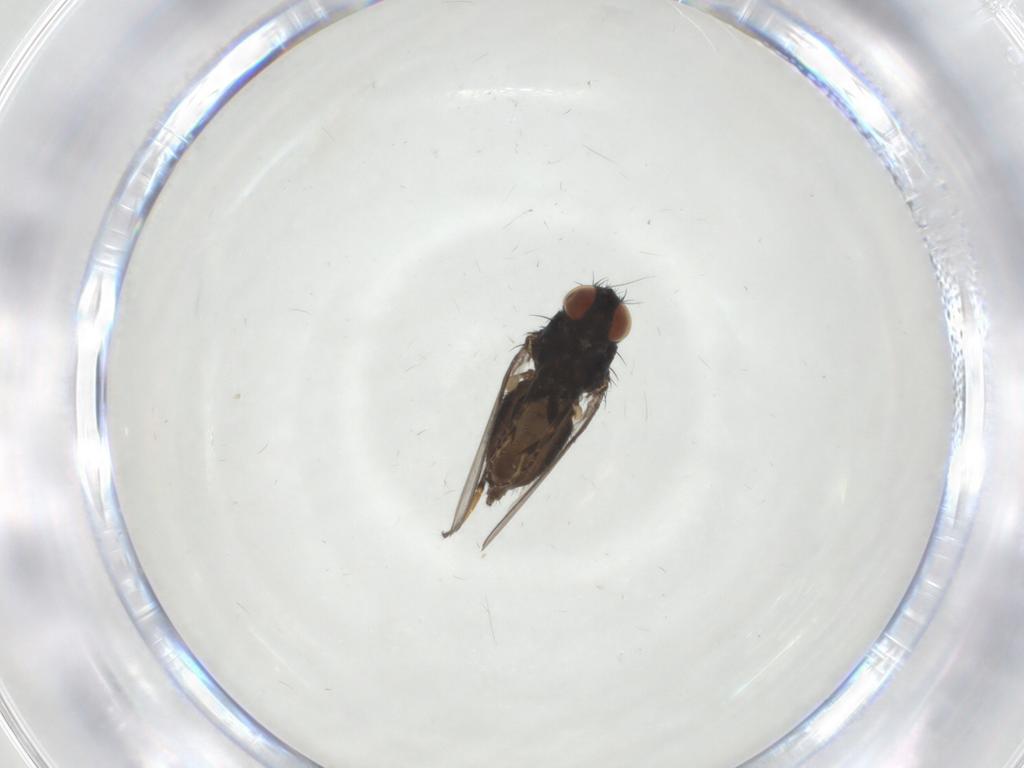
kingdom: Animalia
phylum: Arthropoda
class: Insecta
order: Diptera
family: Milichiidae
